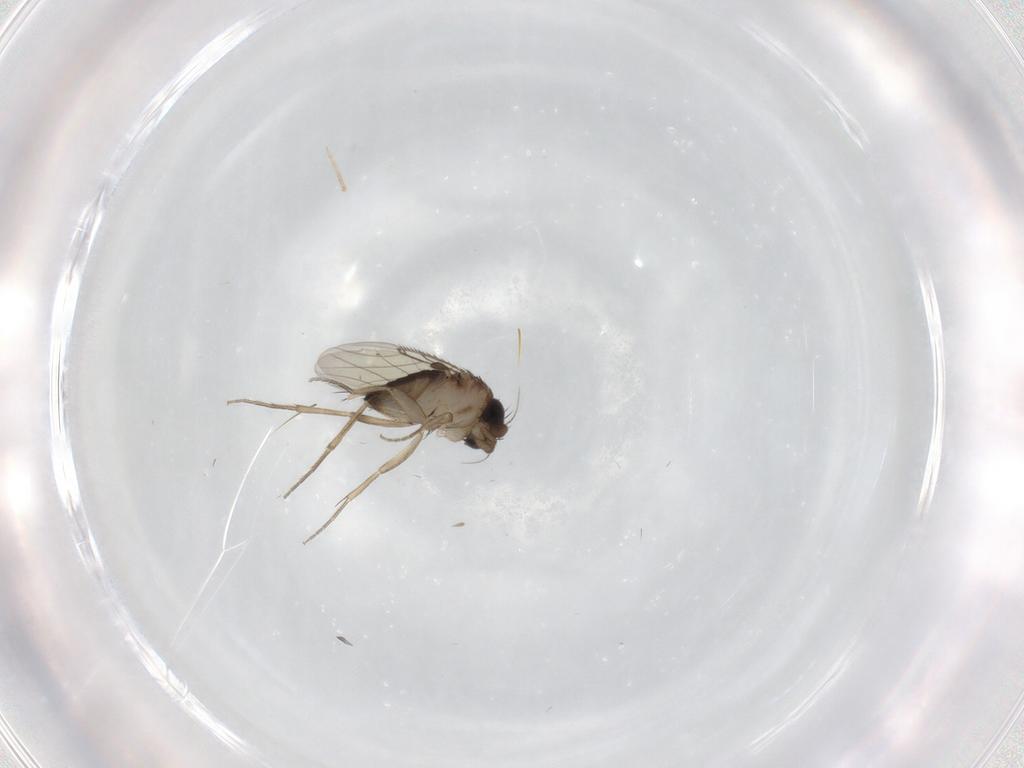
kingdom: Animalia
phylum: Arthropoda
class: Insecta
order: Diptera
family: Phoridae
